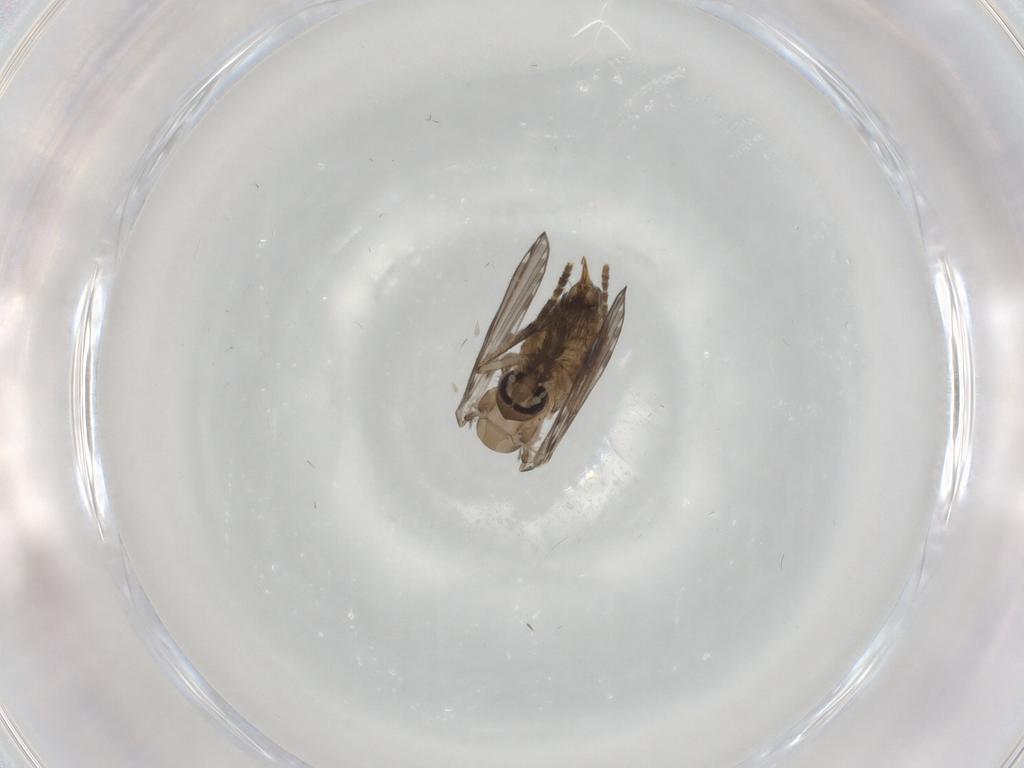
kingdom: Animalia
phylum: Arthropoda
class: Insecta
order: Diptera
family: Psychodidae
